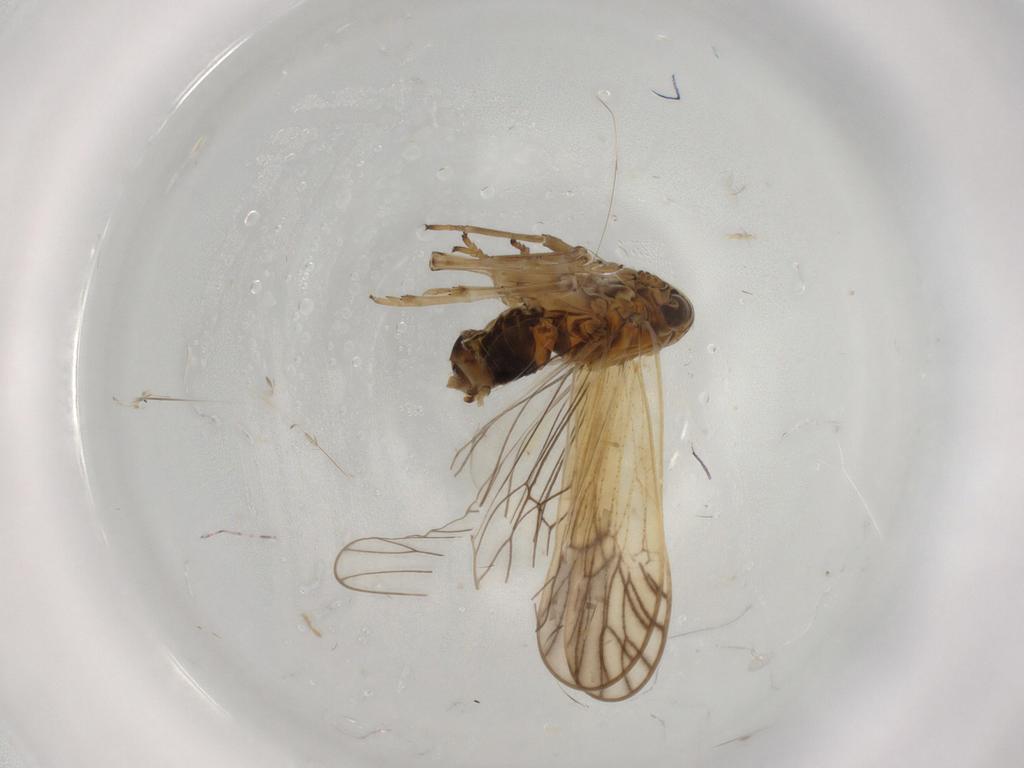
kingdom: Animalia
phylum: Arthropoda
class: Insecta
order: Hemiptera
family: Delphacidae
